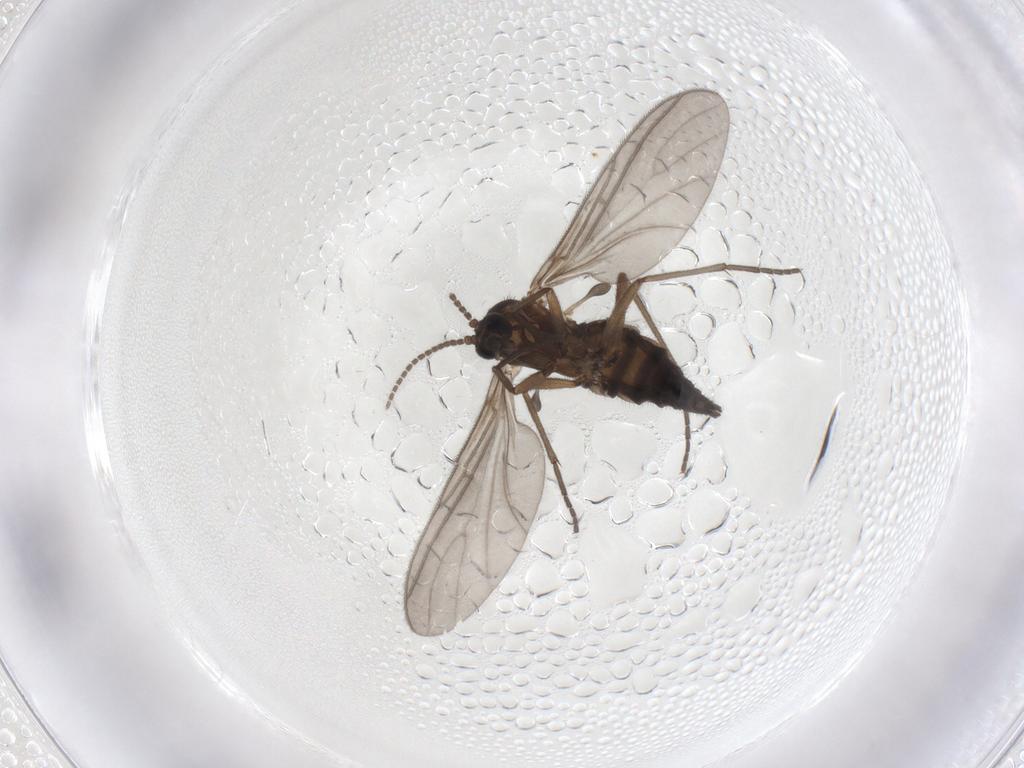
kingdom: Animalia
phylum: Arthropoda
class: Insecta
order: Diptera
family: Sciaridae
